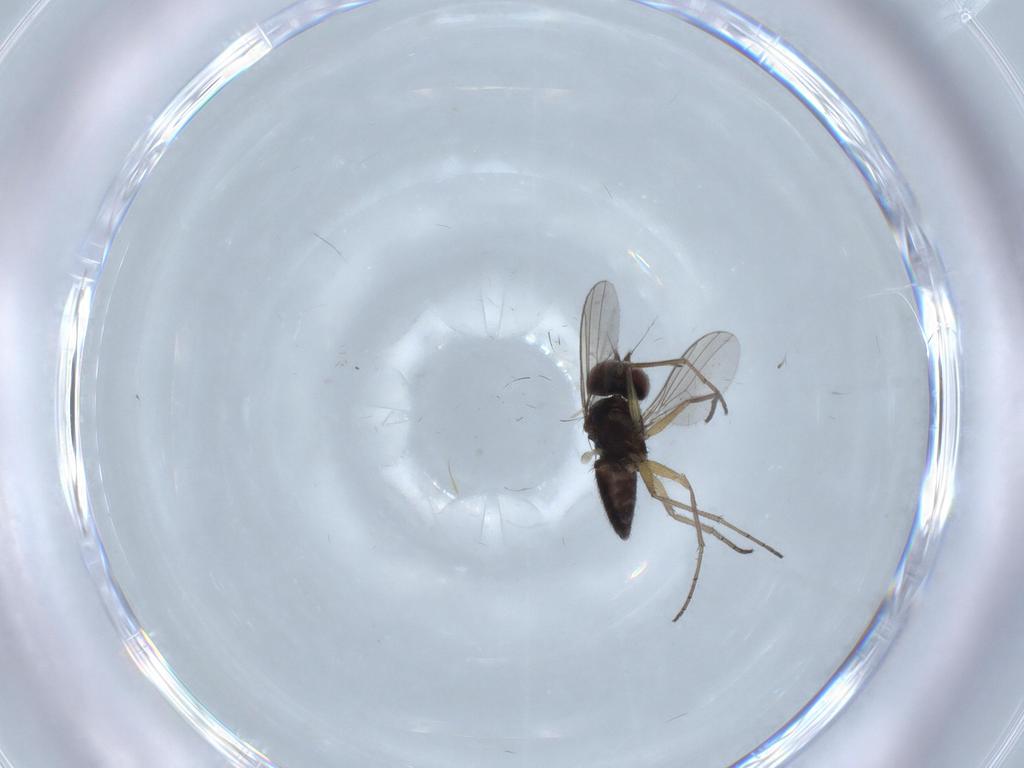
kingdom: Animalia
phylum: Arthropoda
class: Insecta
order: Diptera
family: Dolichopodidae
